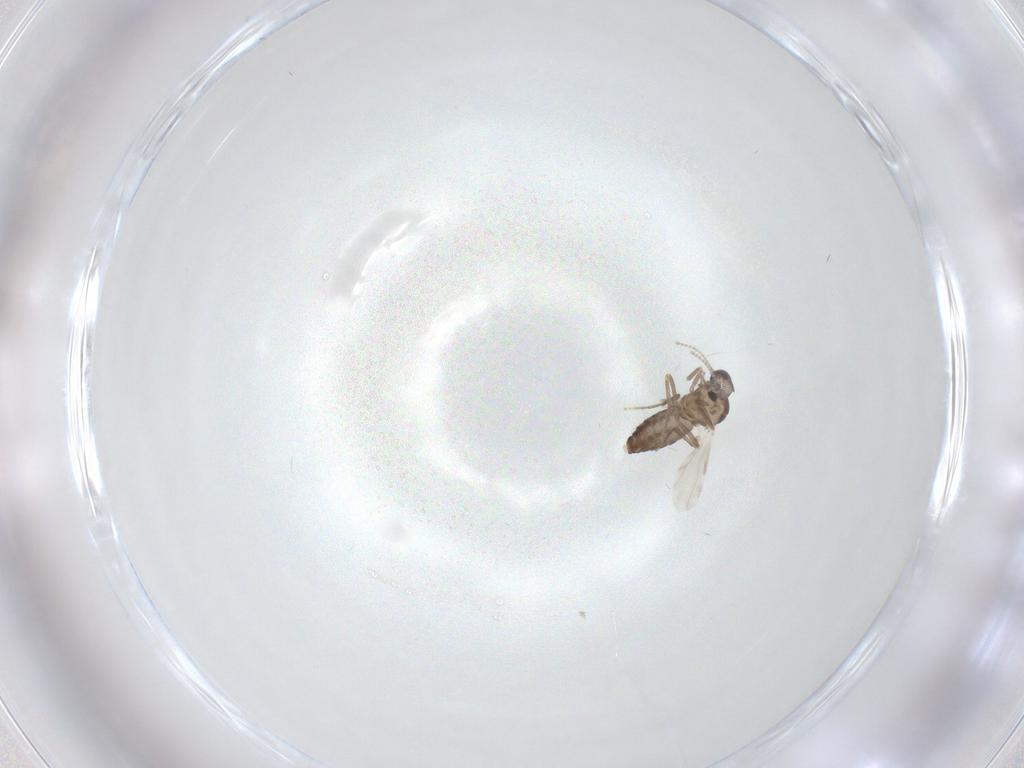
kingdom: Animalia
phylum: Arthropoda
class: Insecta
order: Diptera
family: Ceratopogonidae
